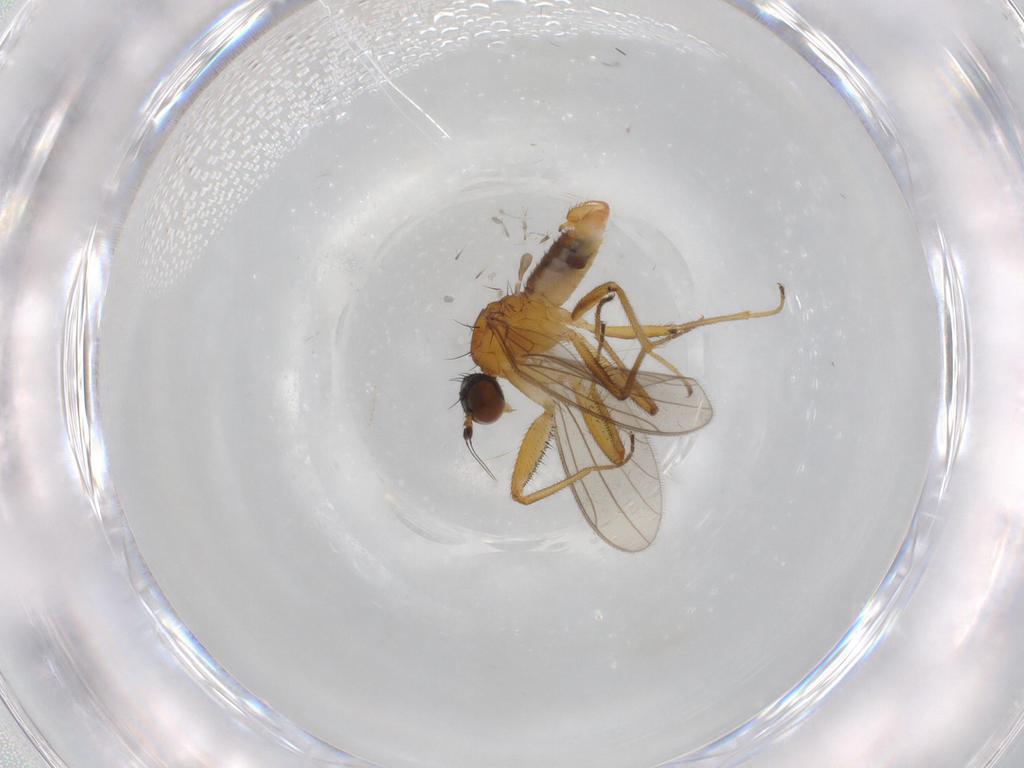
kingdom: Animalia
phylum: Arthropoda
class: Insecta
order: Diptera
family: Empididae
